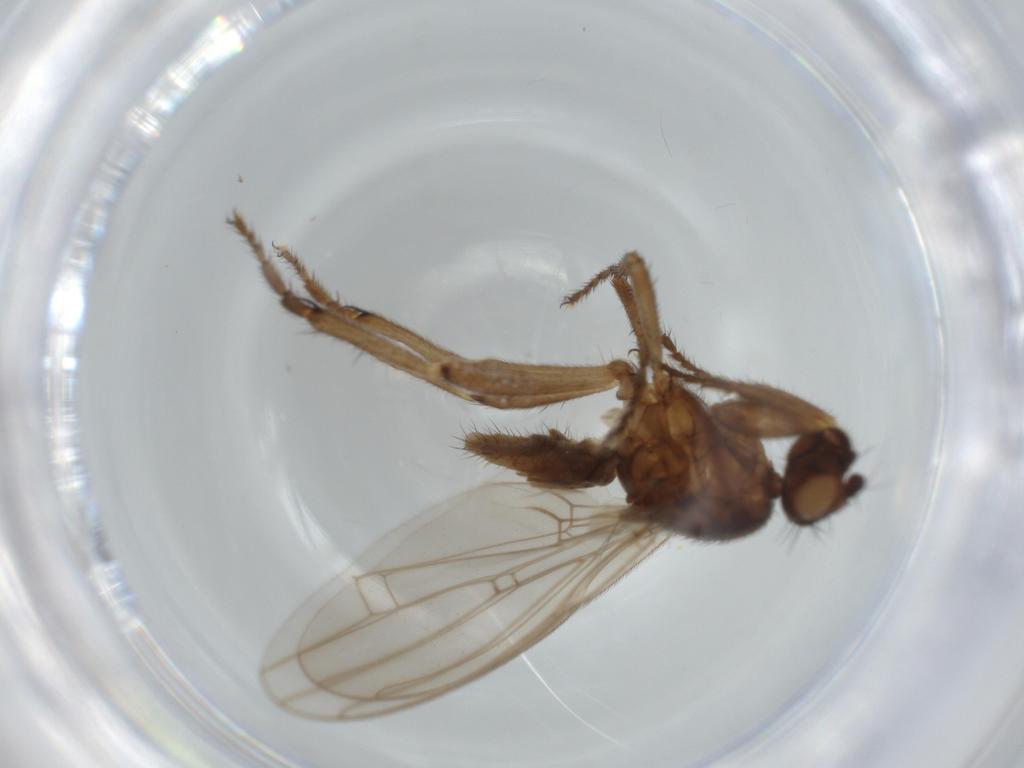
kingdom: Animalia
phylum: Arthropoda
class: Insecta
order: Diptera
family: Sphaeroceridae
